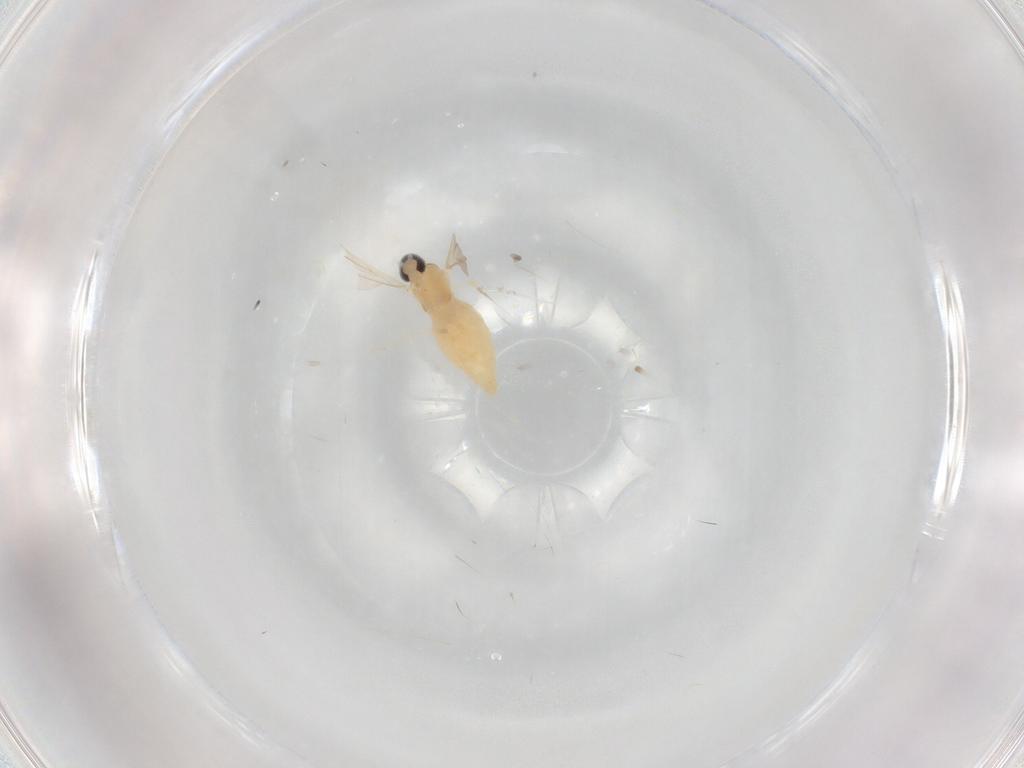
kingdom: Animalia
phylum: Arthropoda
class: Insecta
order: Diptera
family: Cecidomyiidae
